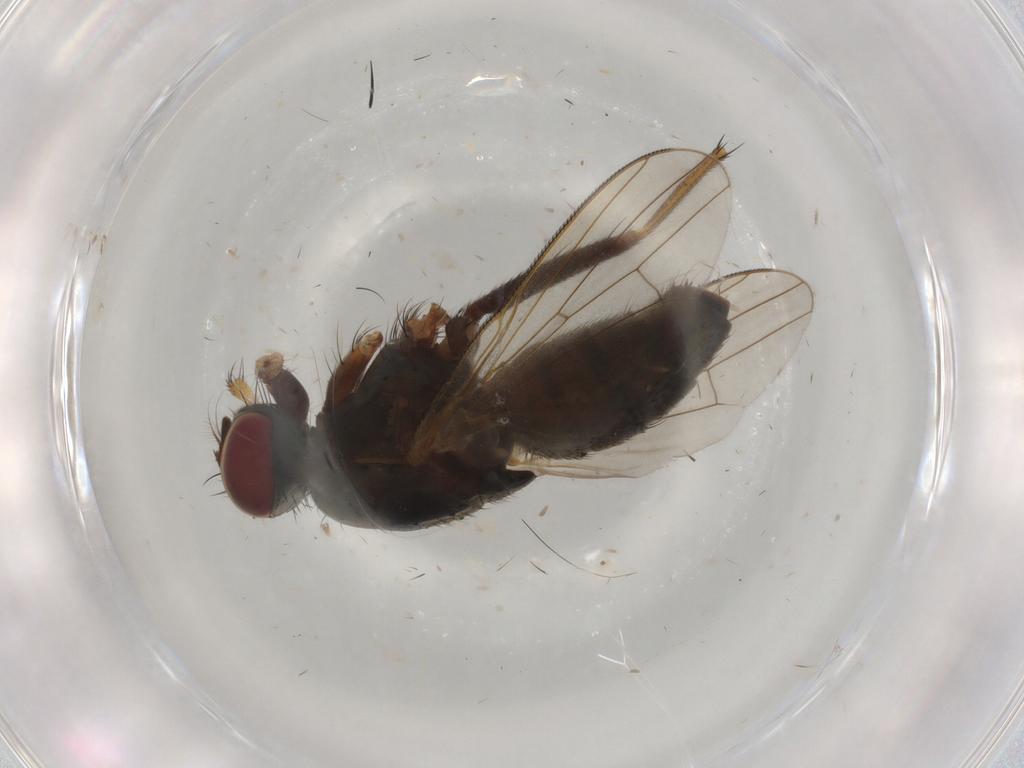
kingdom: Animalia
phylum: Arthropoda
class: Insecta
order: Diptera
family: Muscidae
